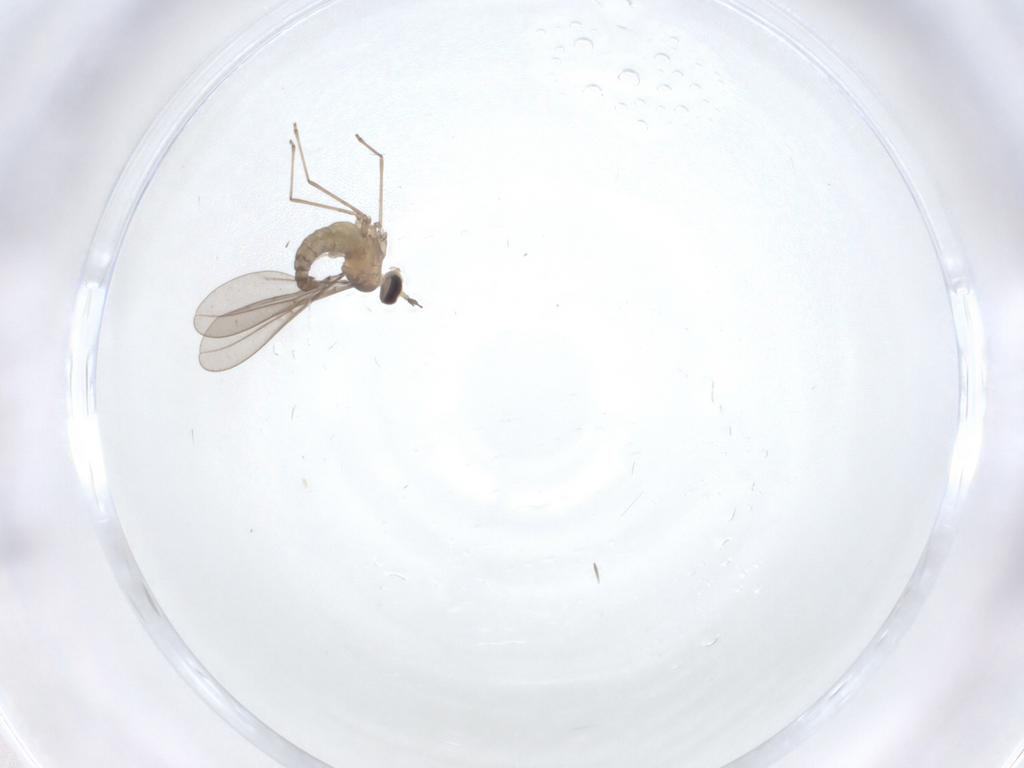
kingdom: Animalia
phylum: Arthropoda
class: Insecta
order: Diptera
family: Cecidomyiidae
